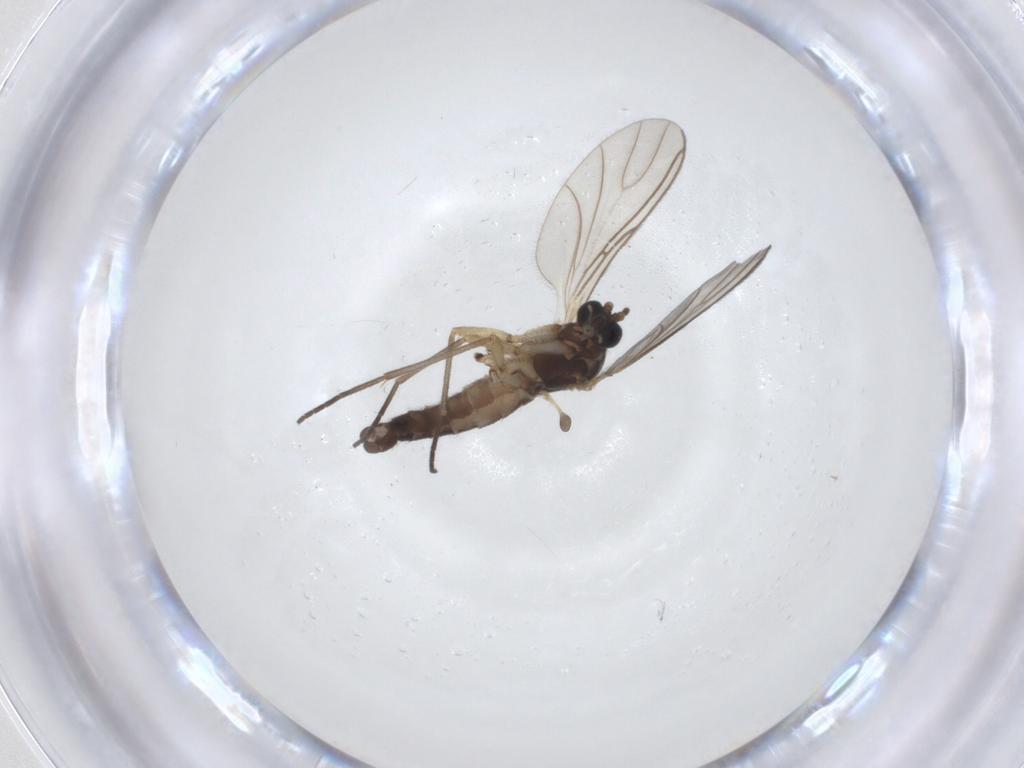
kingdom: Animalia
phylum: Arthropoda
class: Insecta
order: Diptera
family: Sciaridae
